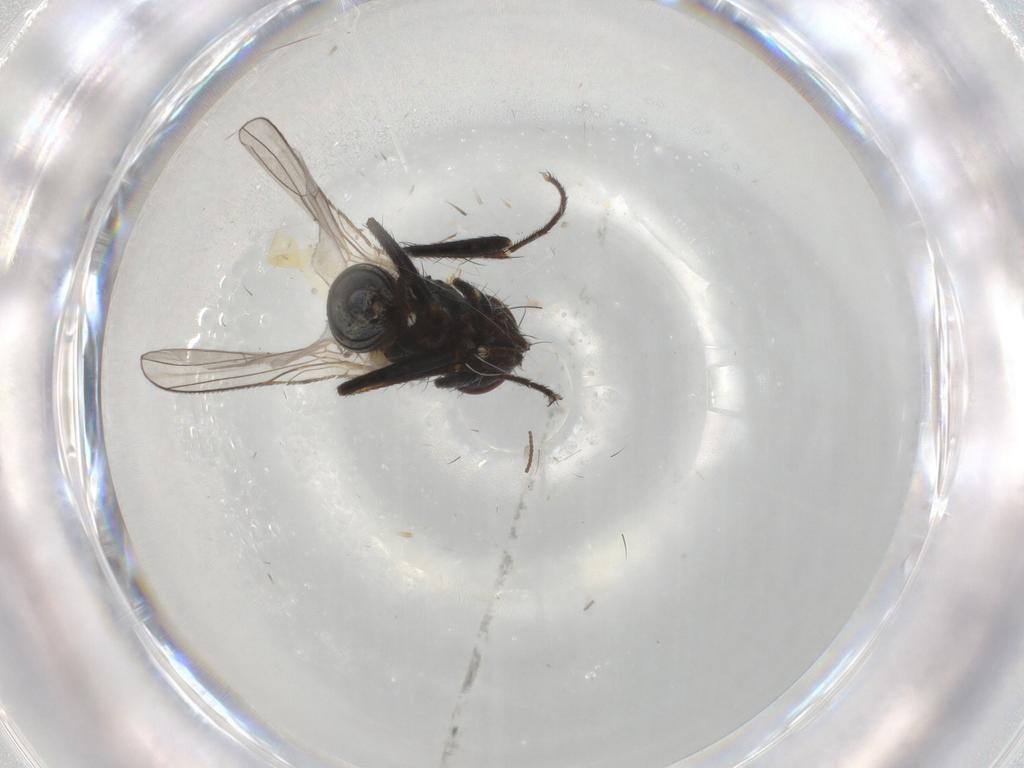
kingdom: Animalia
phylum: Arthropoda
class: Insecta
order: Diptera
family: Cecidomyiidae
